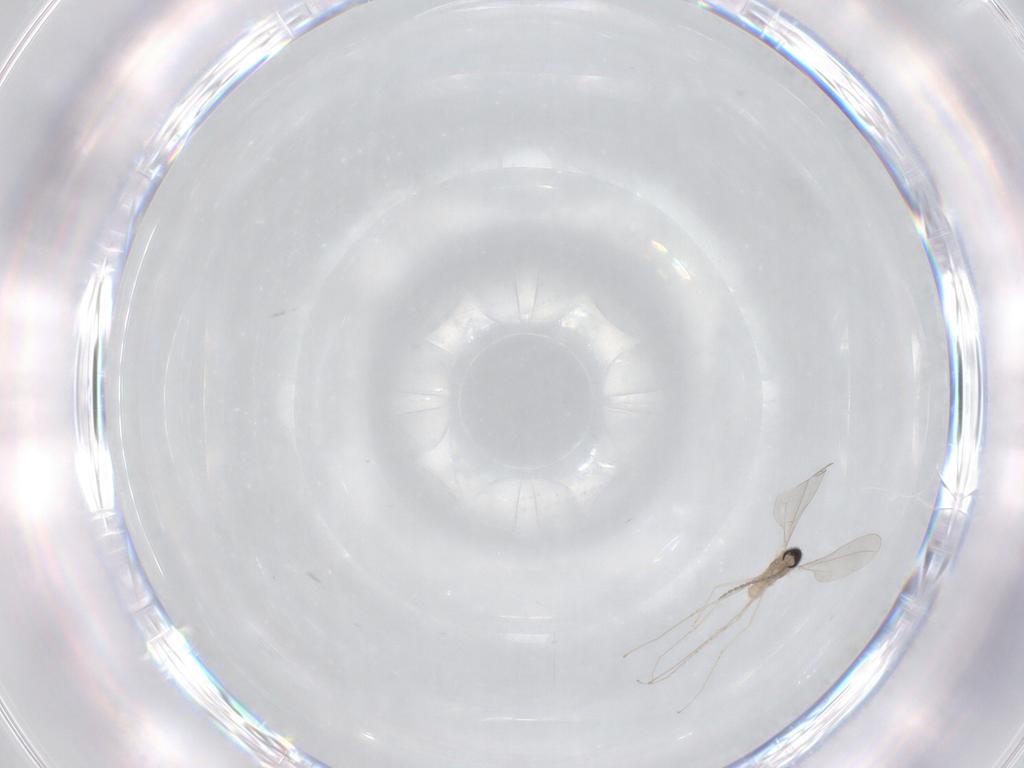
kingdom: Animalia
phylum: Arthropoda
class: Insecta
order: Diptera
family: Cecidomyiidae
